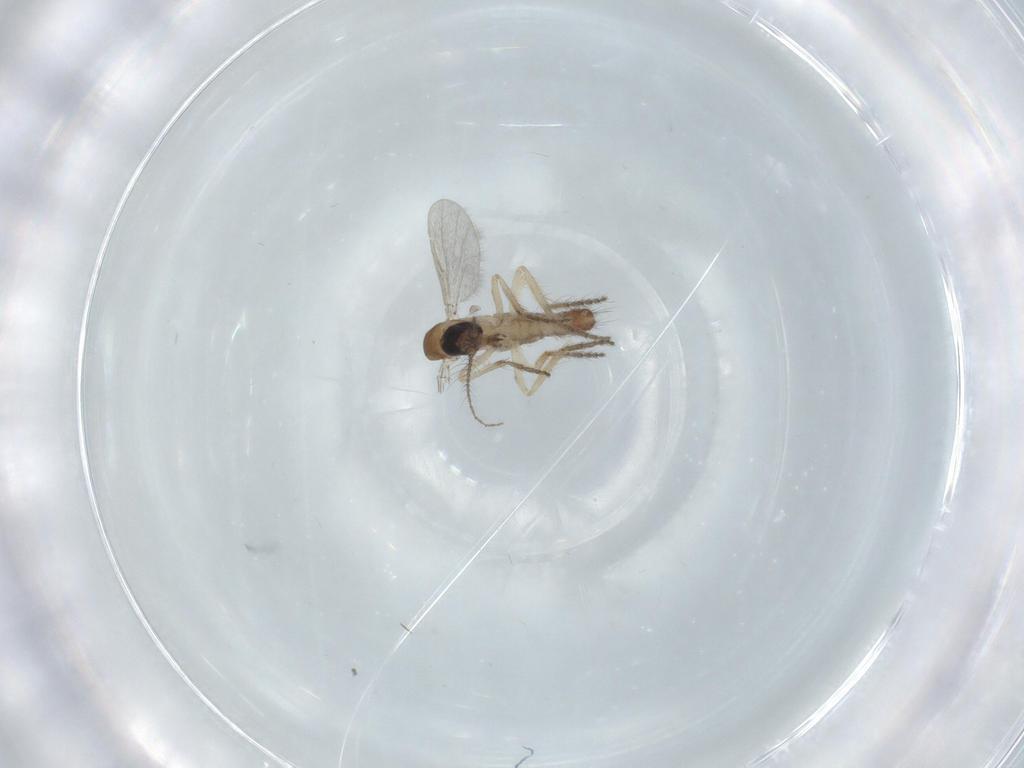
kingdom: Animalia
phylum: Arthropoda
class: Insecta
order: Diptera
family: Ceratopogonidae
